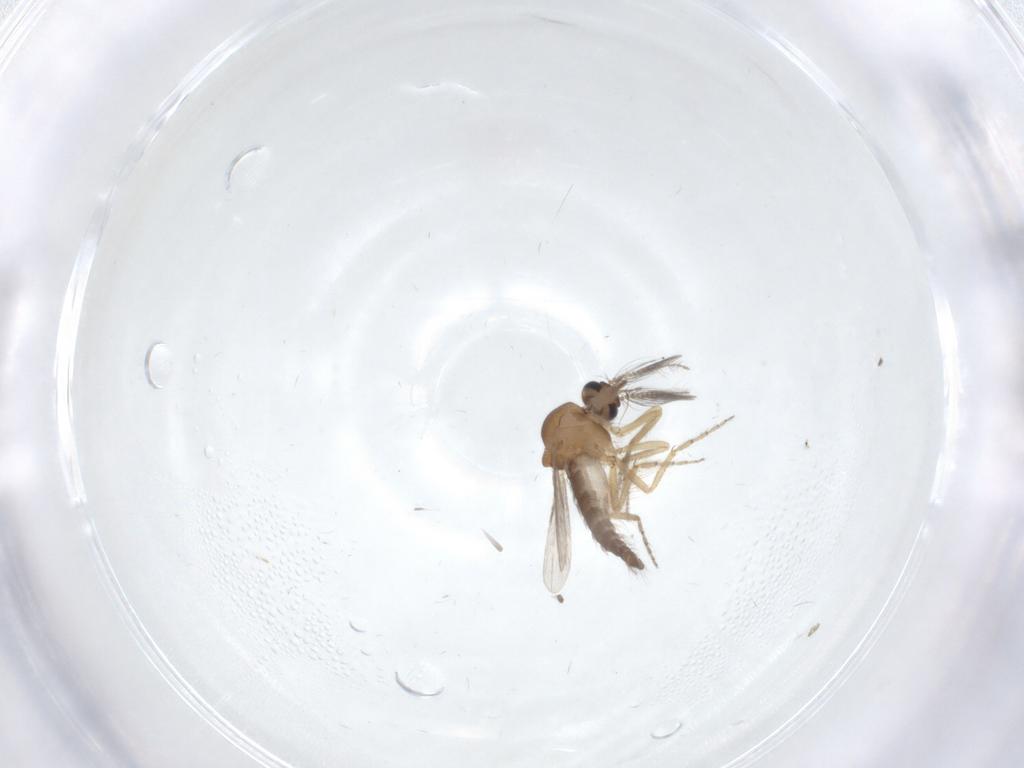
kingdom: Animalia
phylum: Arthropoda
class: Insecta
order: Diptera
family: Ceratopogonidae
